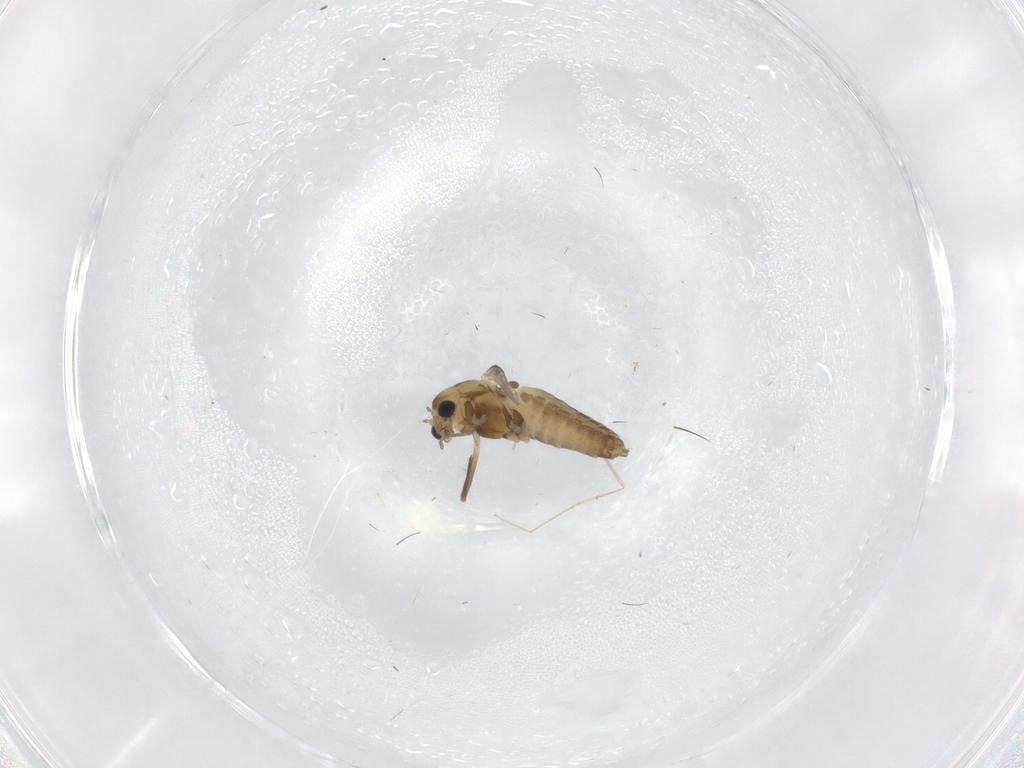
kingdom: Animalia
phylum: Arthropoda
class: Insecta
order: Diptera
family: Chironomidae
